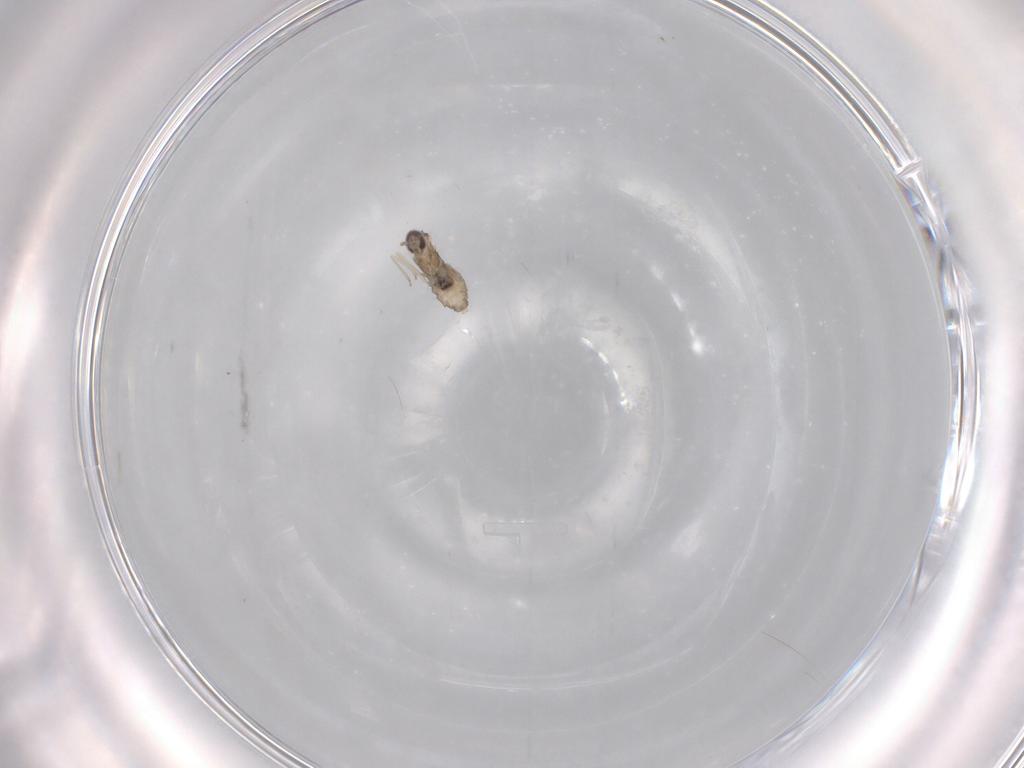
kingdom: Animalia
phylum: Arthropoda
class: Insecta
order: Diptera
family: Cecidomyiidae
